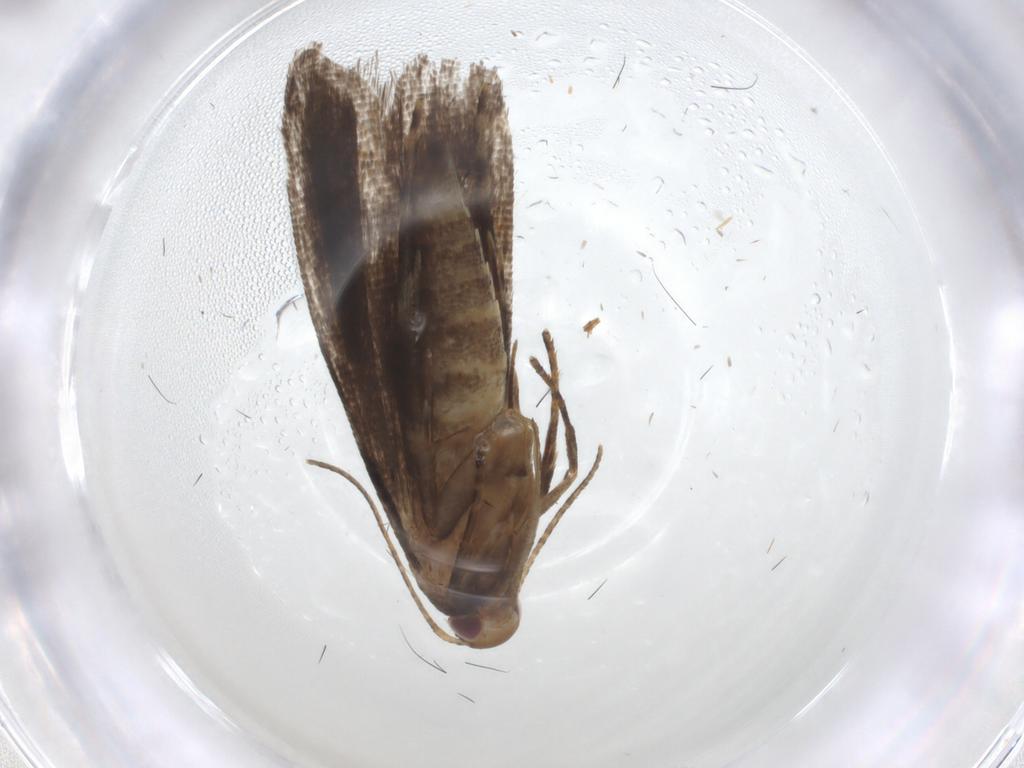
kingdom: Animalia
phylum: Arthropoda
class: Insecta
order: Lepidoptera
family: Gelechiidae
